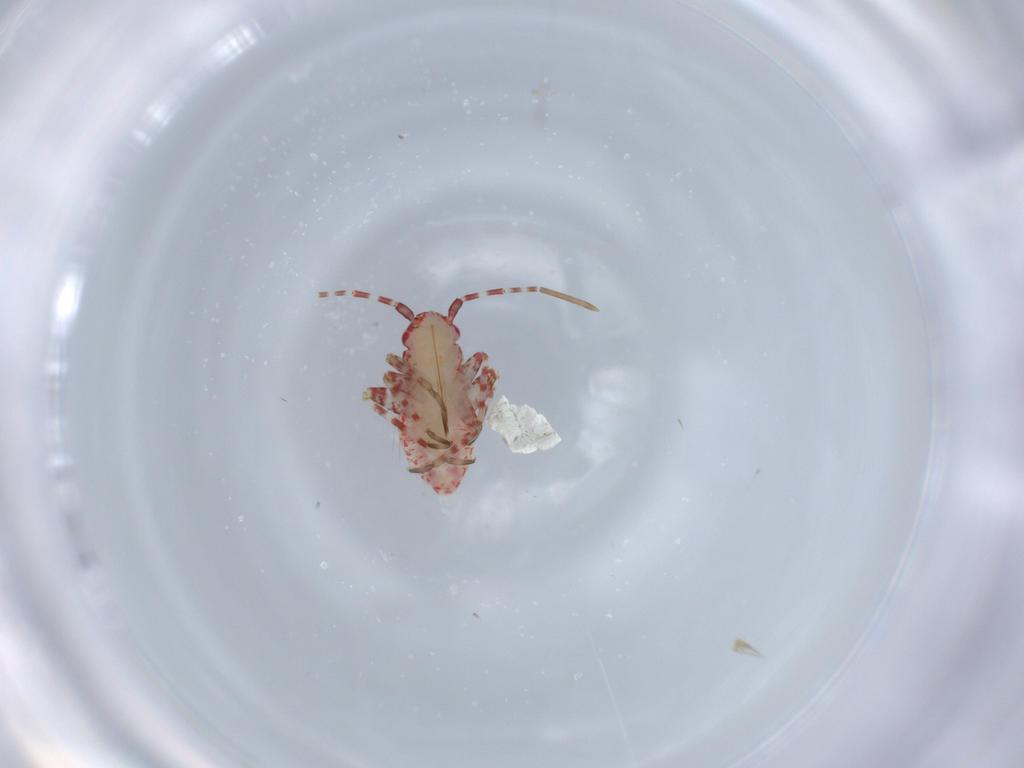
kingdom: Animalia
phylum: Arthropoda
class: Insecta
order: Hemiptera
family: Miridae
